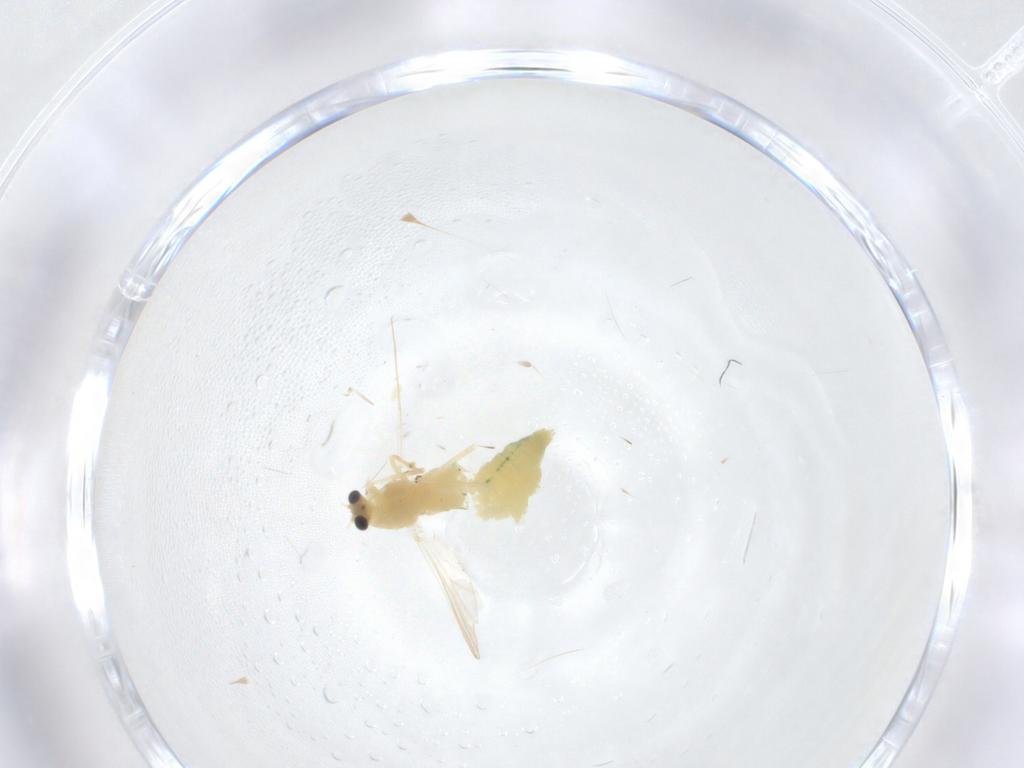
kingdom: Animalia
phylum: Arthropoda
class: Insecta
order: Diptera
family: Chironomidae
